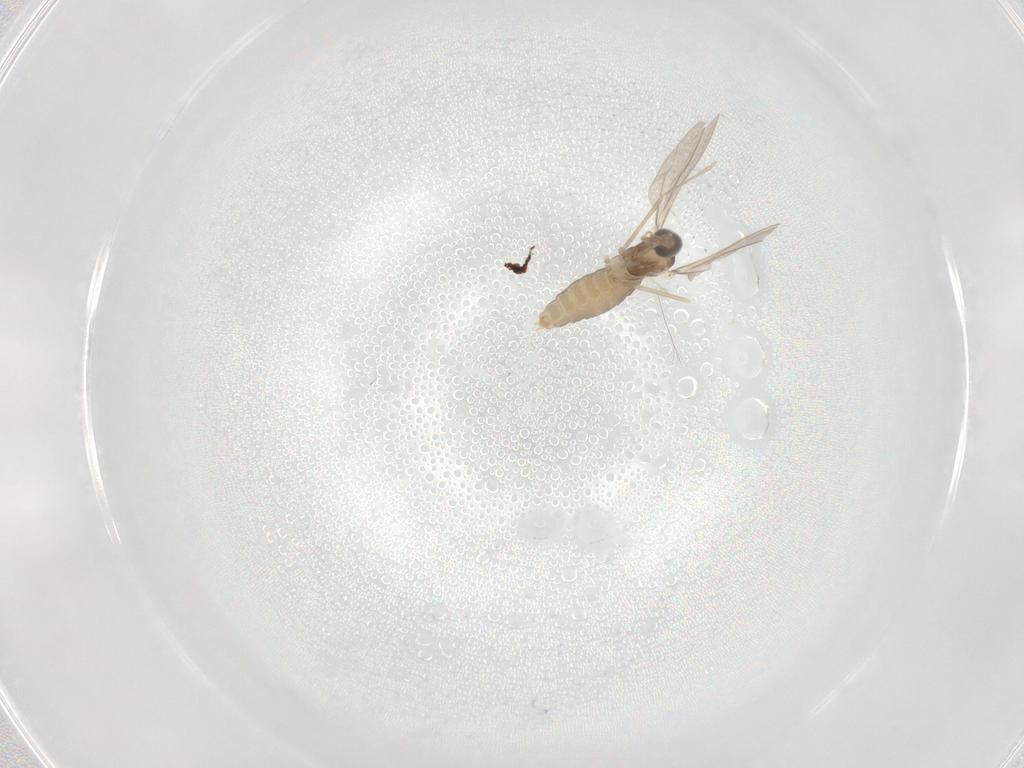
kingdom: Animalia
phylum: Arthropoda
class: Insecta
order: Diptera
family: Cecidomyiidae
